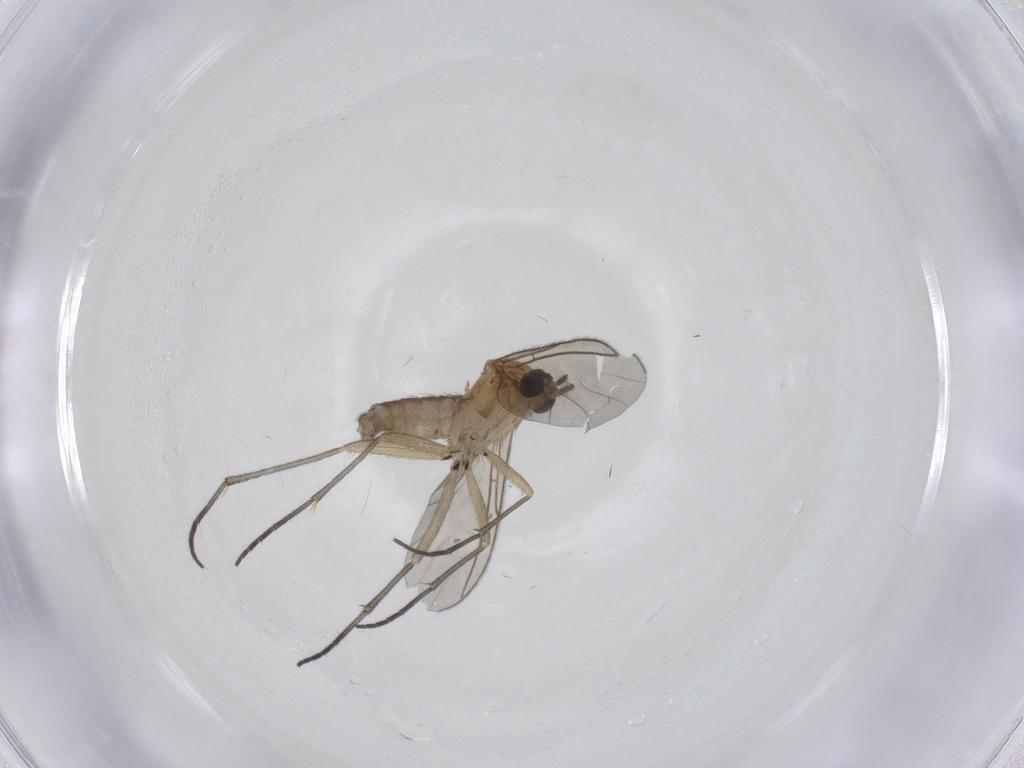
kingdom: Animalia
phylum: Arthropoda
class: Insecta
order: Diptera
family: Sciaridae
